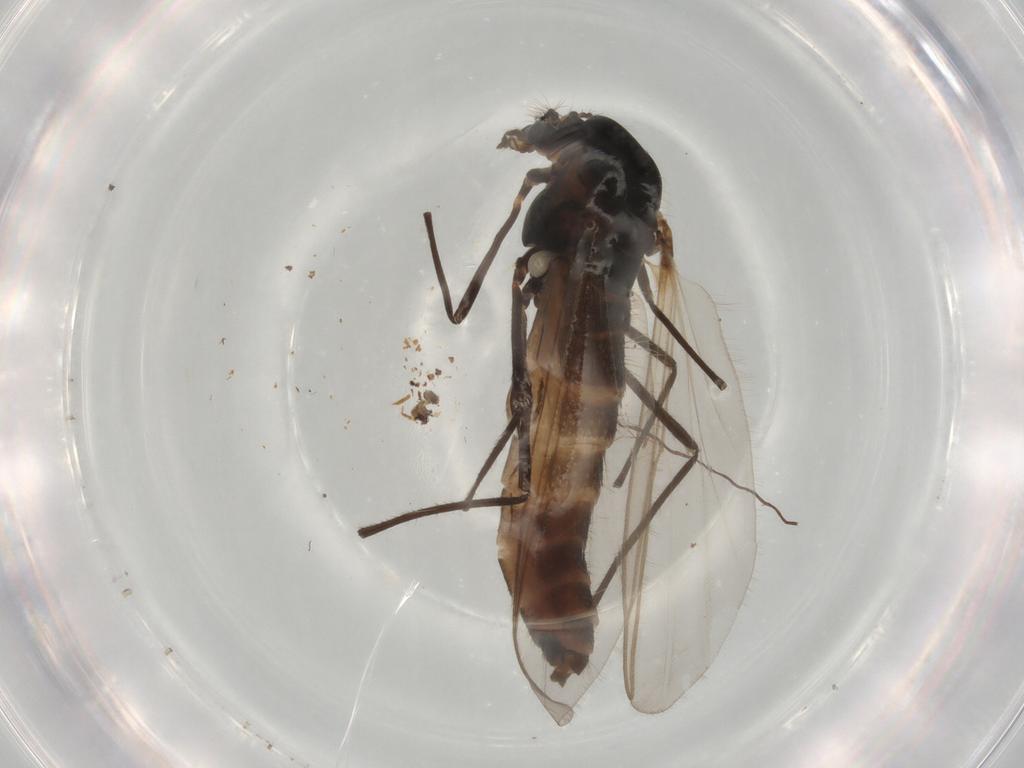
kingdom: Animalia
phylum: Arthropoda
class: Insecta
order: Diptera
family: Chironomidae
